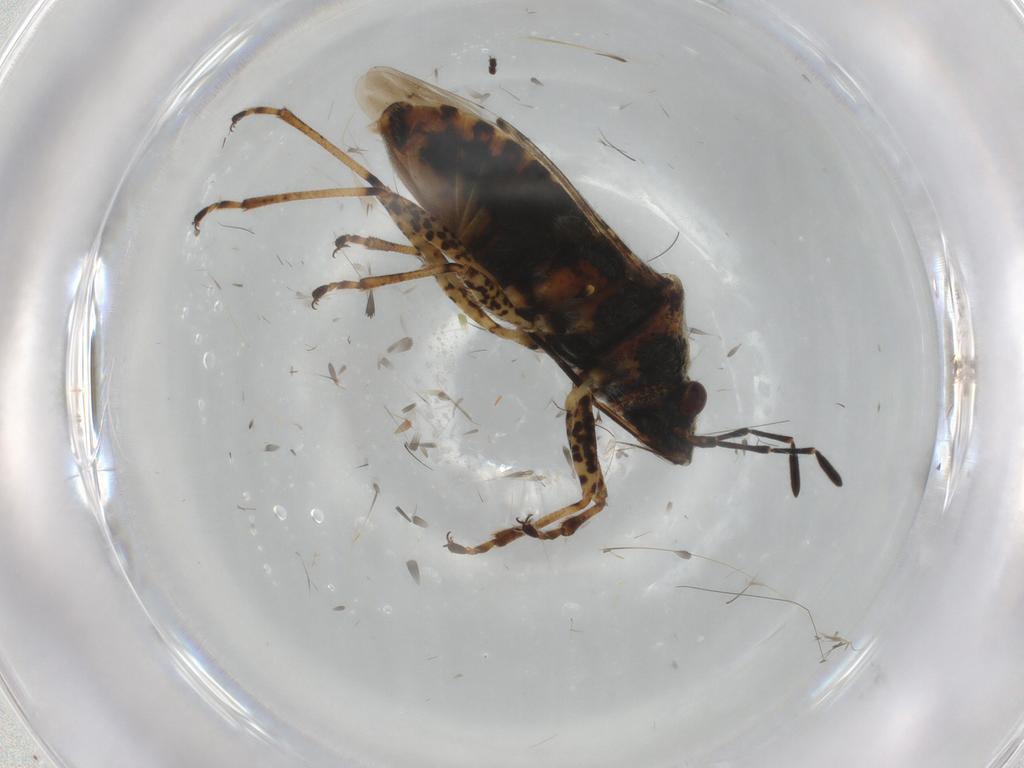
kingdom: Animalia
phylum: Arthropoda
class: Insecta
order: Hemiptera
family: Lygaeidae
